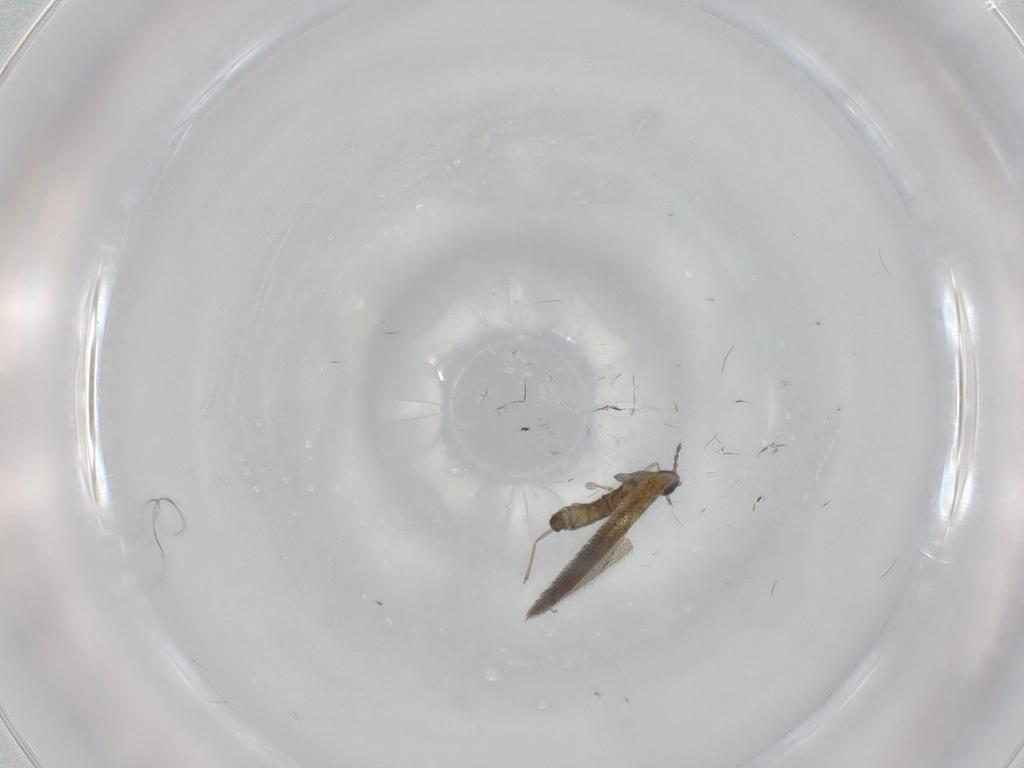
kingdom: Animalia
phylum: Arthropoda
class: Insecta
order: Diptera
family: Cecidomyiidae
